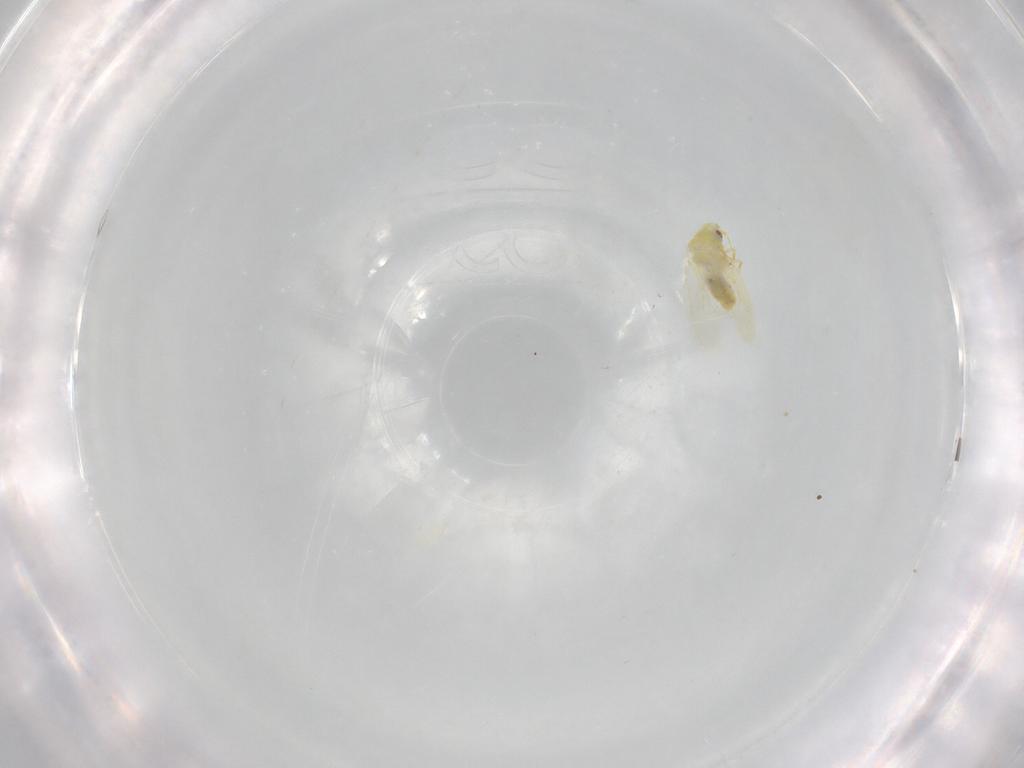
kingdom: Animalia
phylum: Arthropoda
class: Insecta
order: Hemiptera
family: Aleyrodidae
